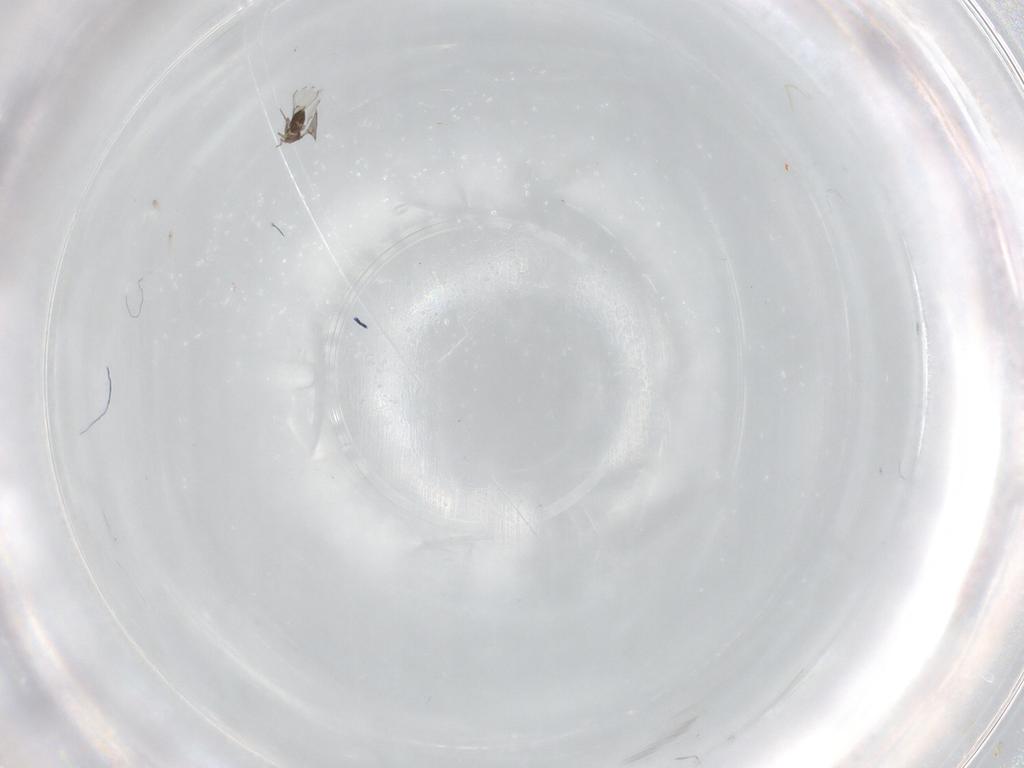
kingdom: Animalia
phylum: Arthropoda
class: Insecta
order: Hymenoptera
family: Trichogrammatidae
